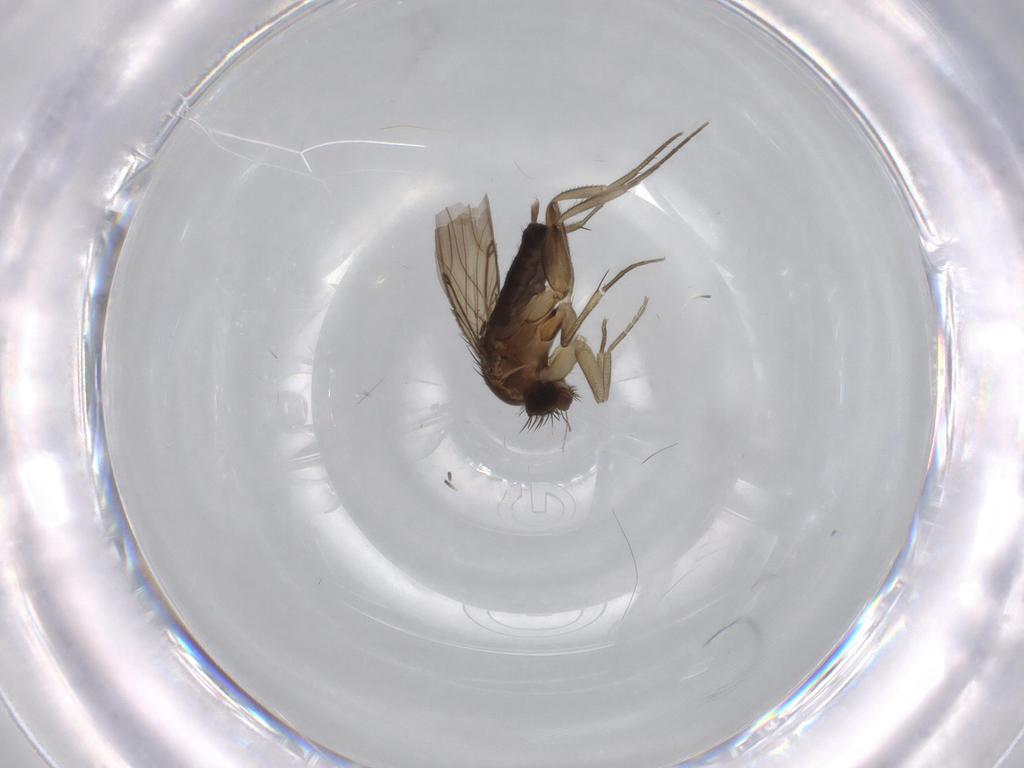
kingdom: Animalia
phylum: Arthropoda
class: Insecta
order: Diptera
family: Phoridae
